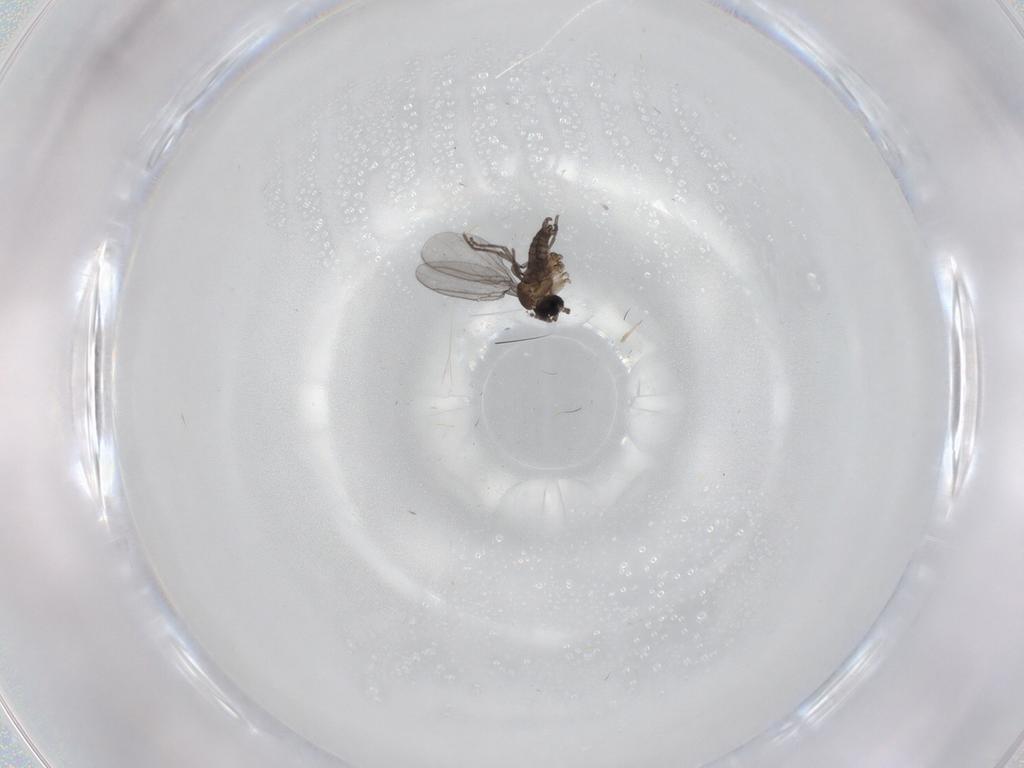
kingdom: Animalia
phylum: Arthropoda
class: Insecta
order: Diptera
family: Sciaridae
